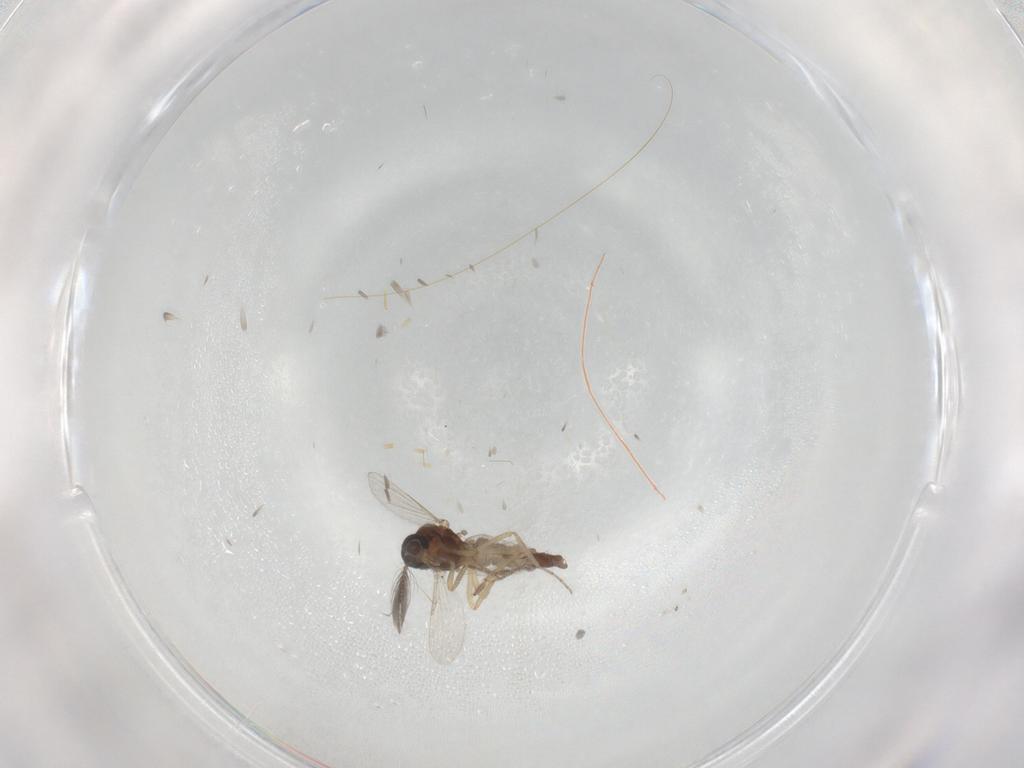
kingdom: Animalia
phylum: Arthropoda
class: Insecta
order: Diptera
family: Ceratopogonidae
